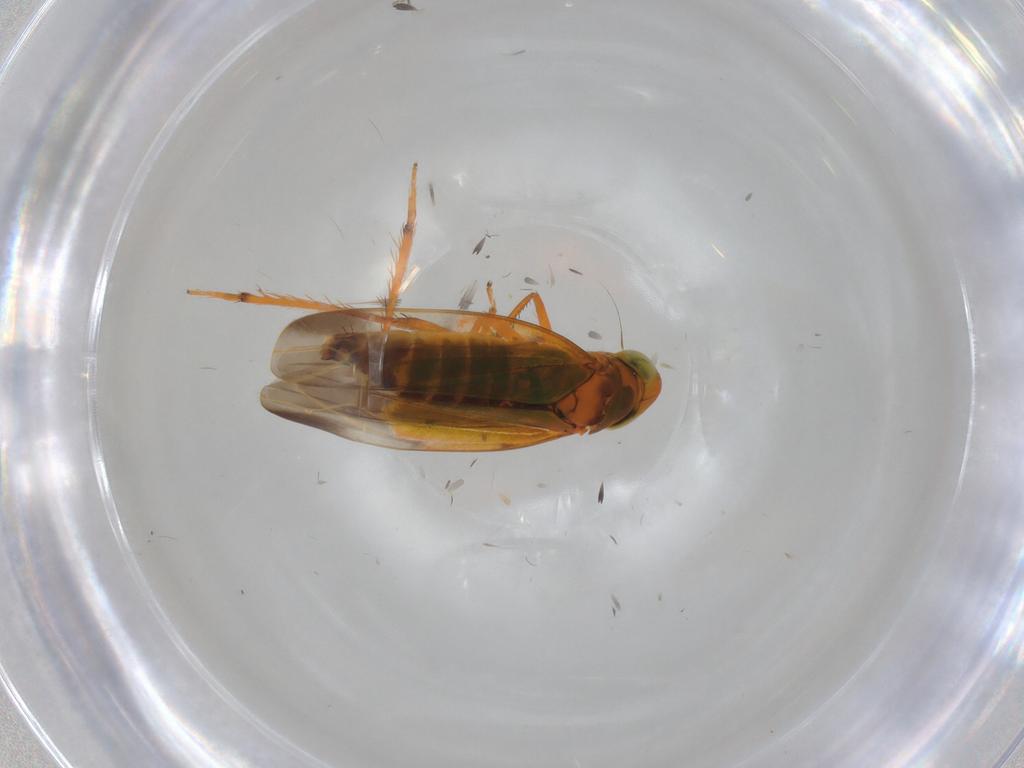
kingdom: Animalia
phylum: Arthropoda
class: Insecta
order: Hemiptera
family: Cicadellidae
